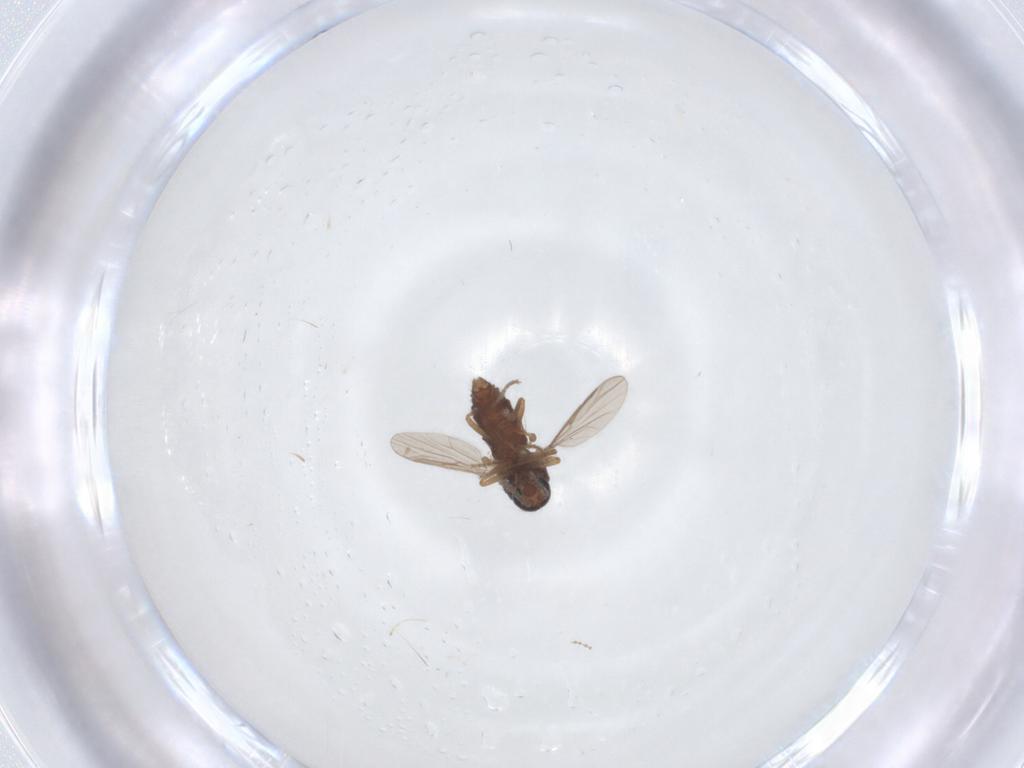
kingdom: Animalia
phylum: Arthropoda
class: Insecta
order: Diptera
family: Ceratopogonidae
